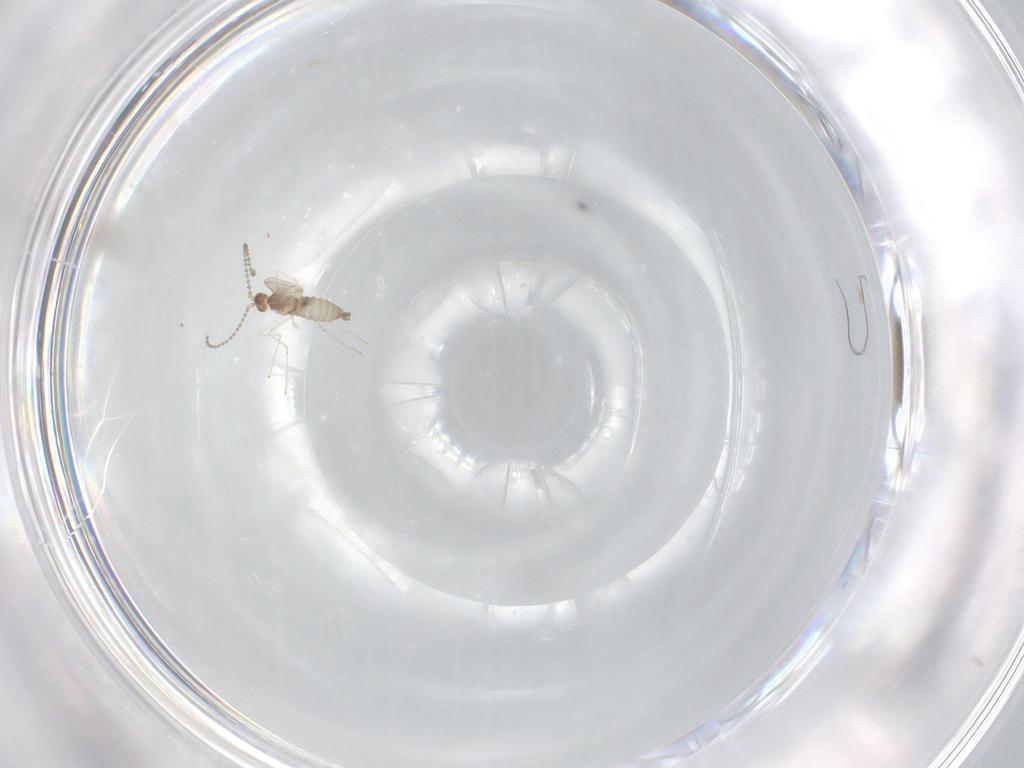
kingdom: Animalia
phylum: Arthropoda
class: Insecta
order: Diptera
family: Cecidomyiidae
